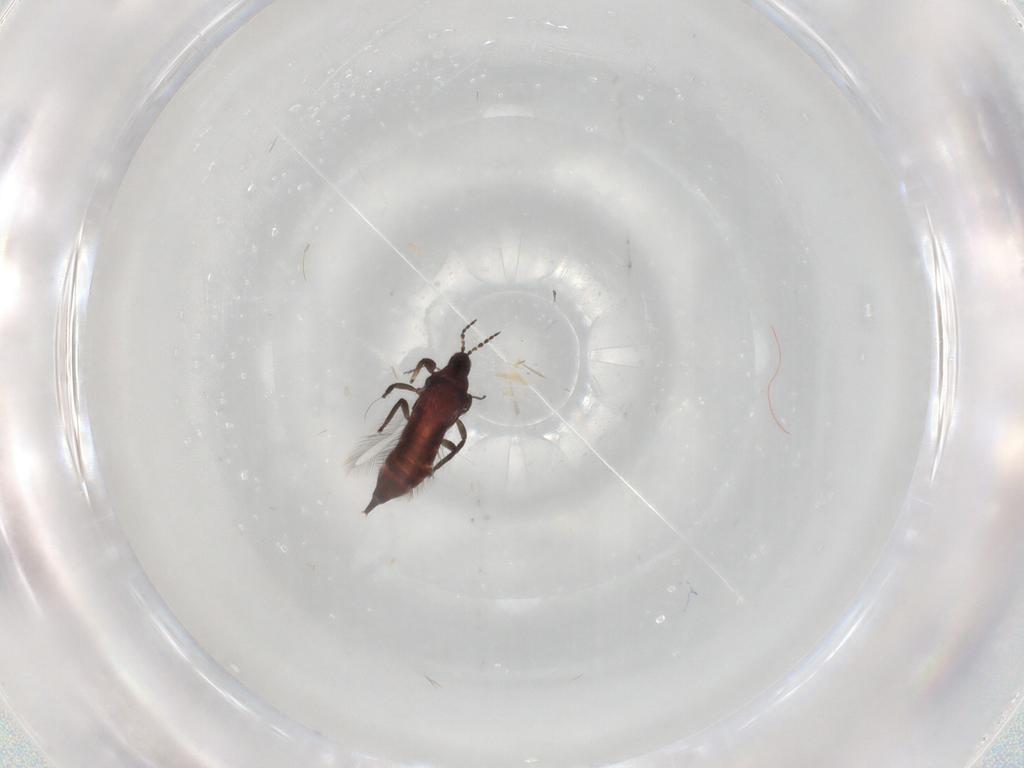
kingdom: Animalia
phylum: Arthropoda
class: Insecta
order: Thysanoptera
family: Phlaeothripidae
